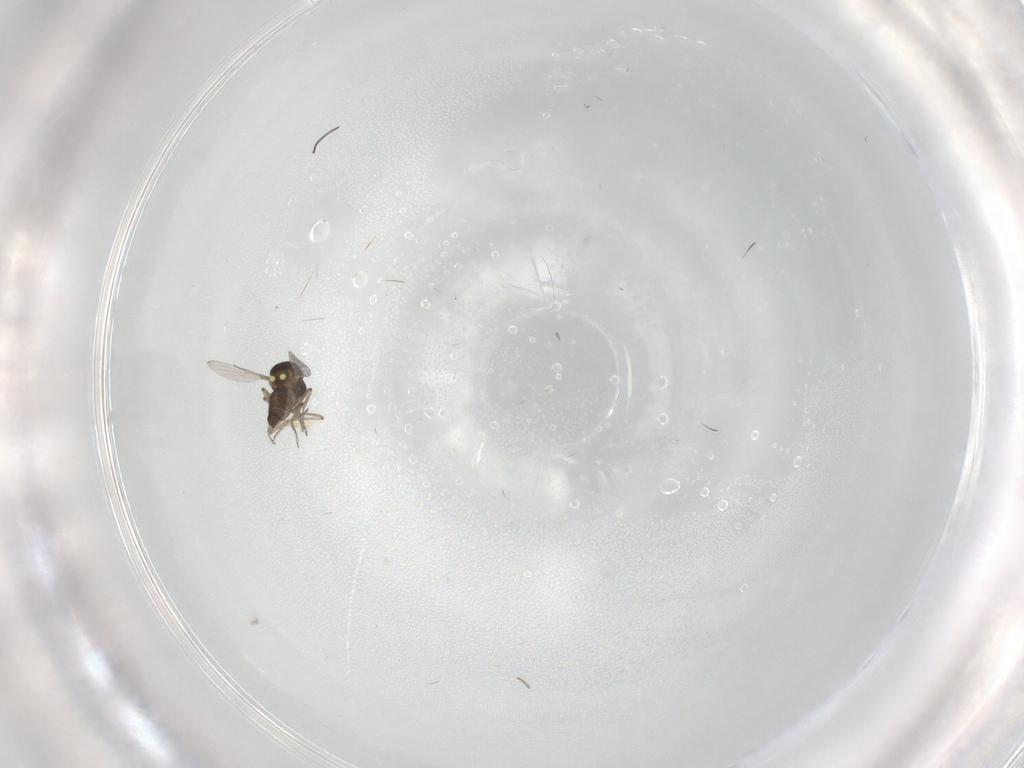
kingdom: Animalia
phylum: Arthropoda
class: Insecta
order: Diptera
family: Ceratopogonidae
